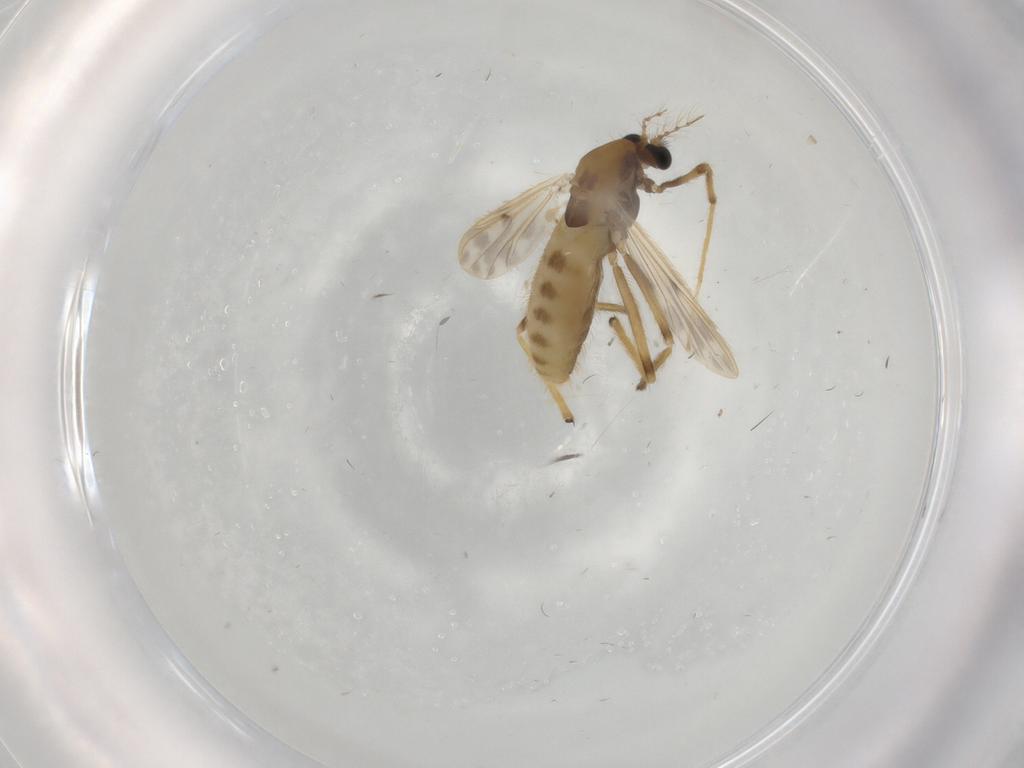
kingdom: Animalia
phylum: Arthropoda
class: Insecta
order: Diptera
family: Chironomidae
